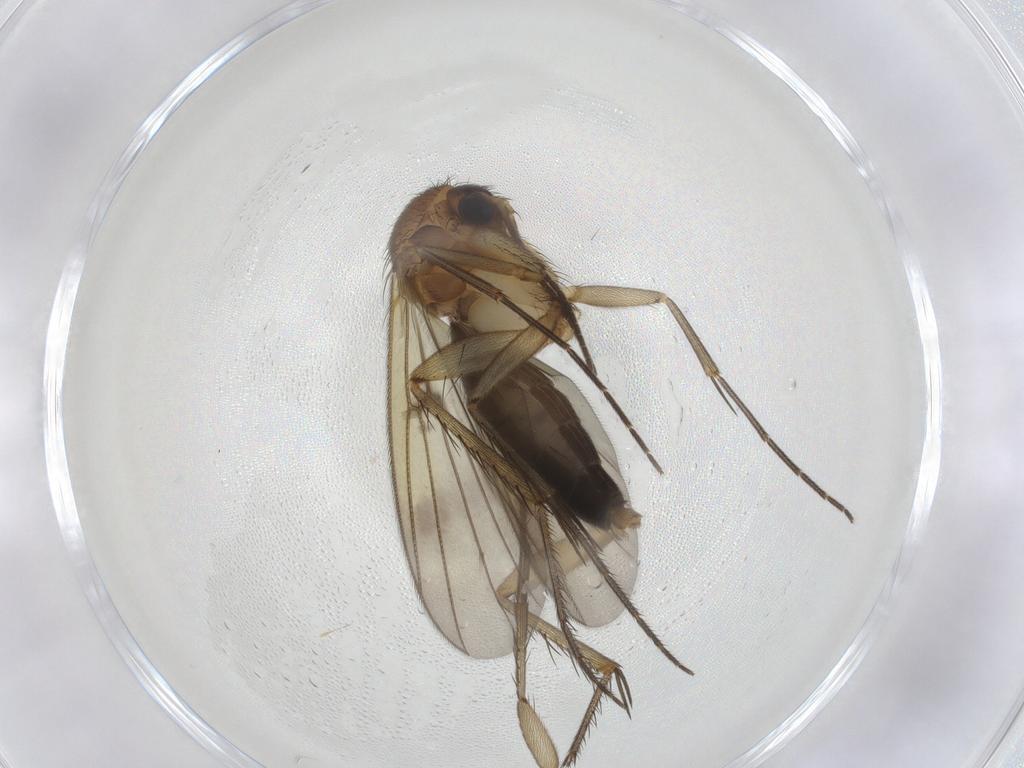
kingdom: Animalia
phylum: Arthropoda
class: Insecta
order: Diptera
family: Mycetophilidae
